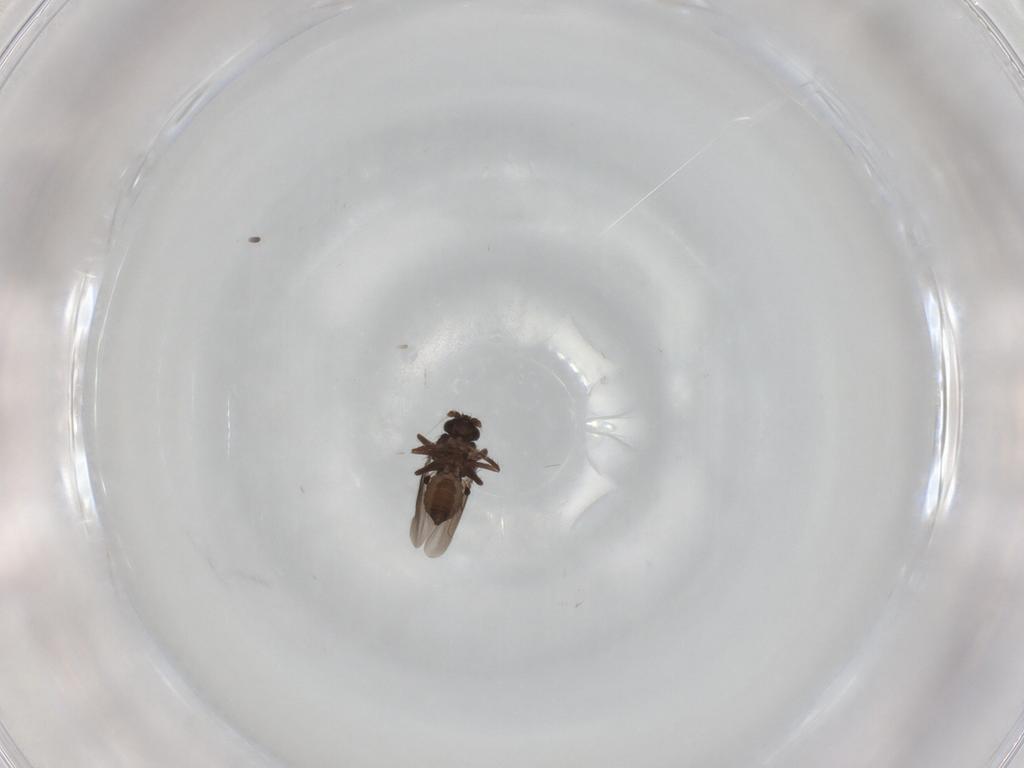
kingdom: Animalia
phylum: Arthropoda
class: Insecta
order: Diptera
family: Sphaeroceridae
